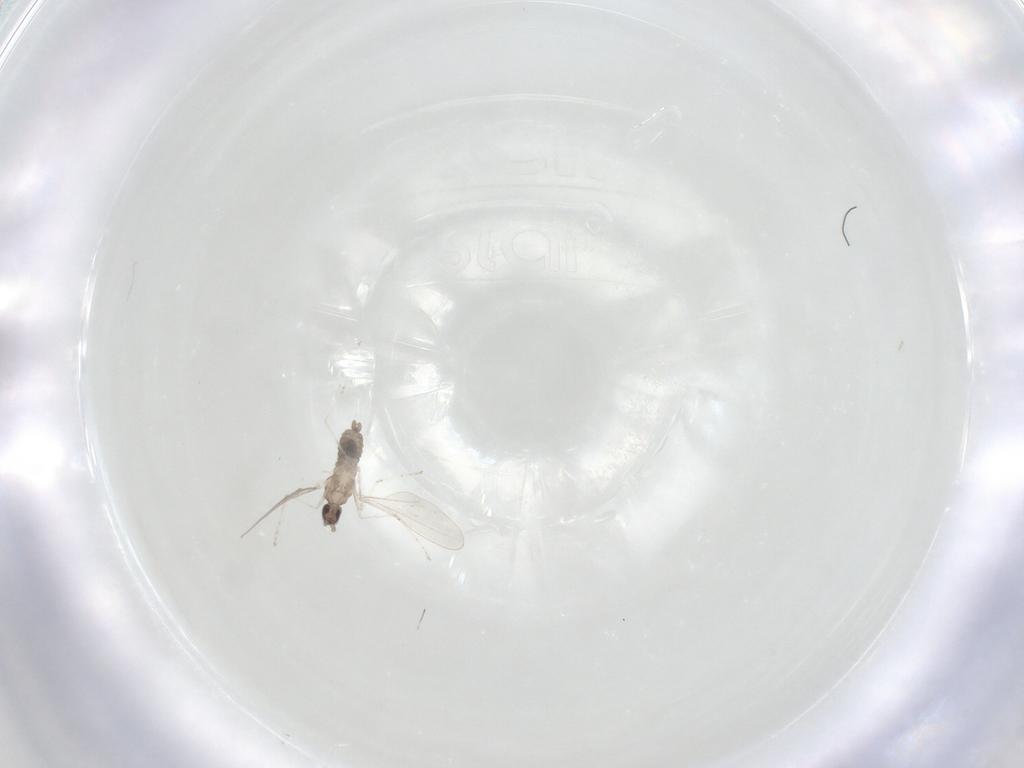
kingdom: Animalia
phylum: Arthropoda
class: Insecta
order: Diptera
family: Cecidomyiidae
